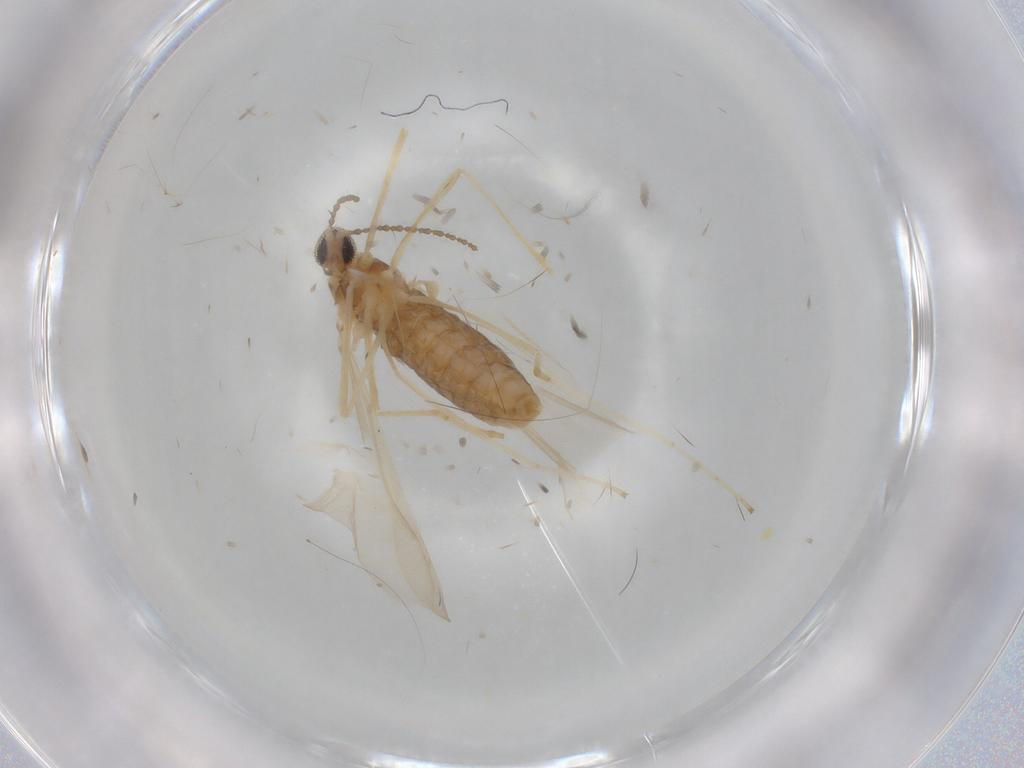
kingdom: Animalia
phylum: Arthropoda
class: Insecta
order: Diptera
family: Cecidomyiidae
